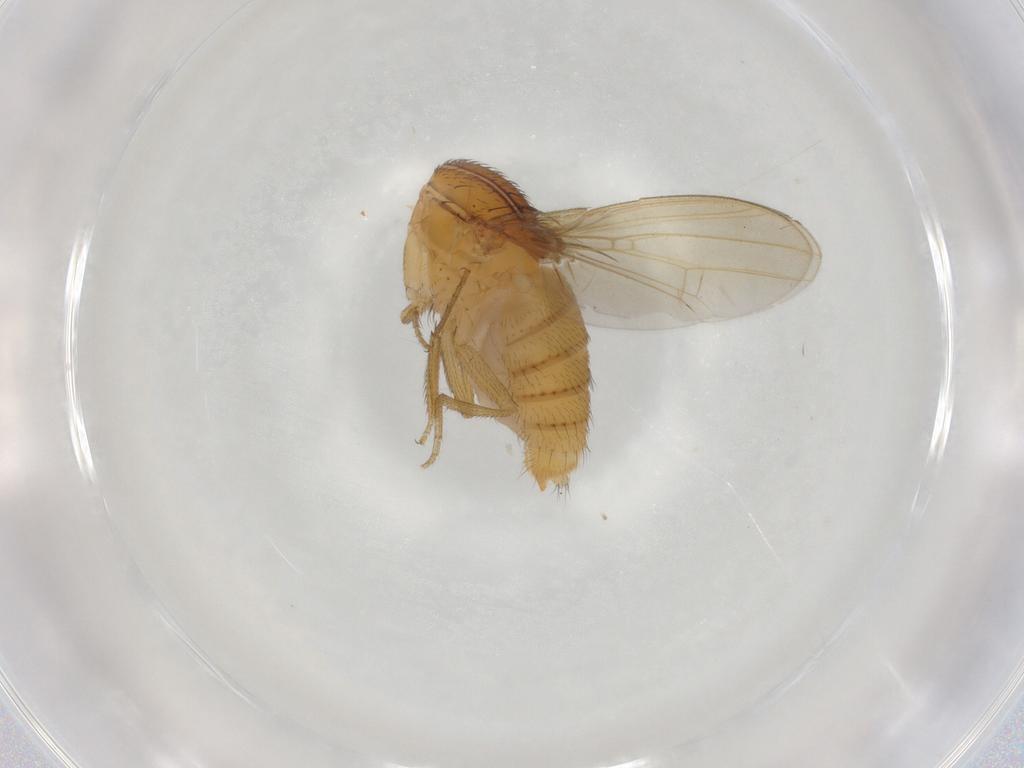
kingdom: Animalia
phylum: Arthropoda
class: Insecta
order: Diptera
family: Drosophilidae
